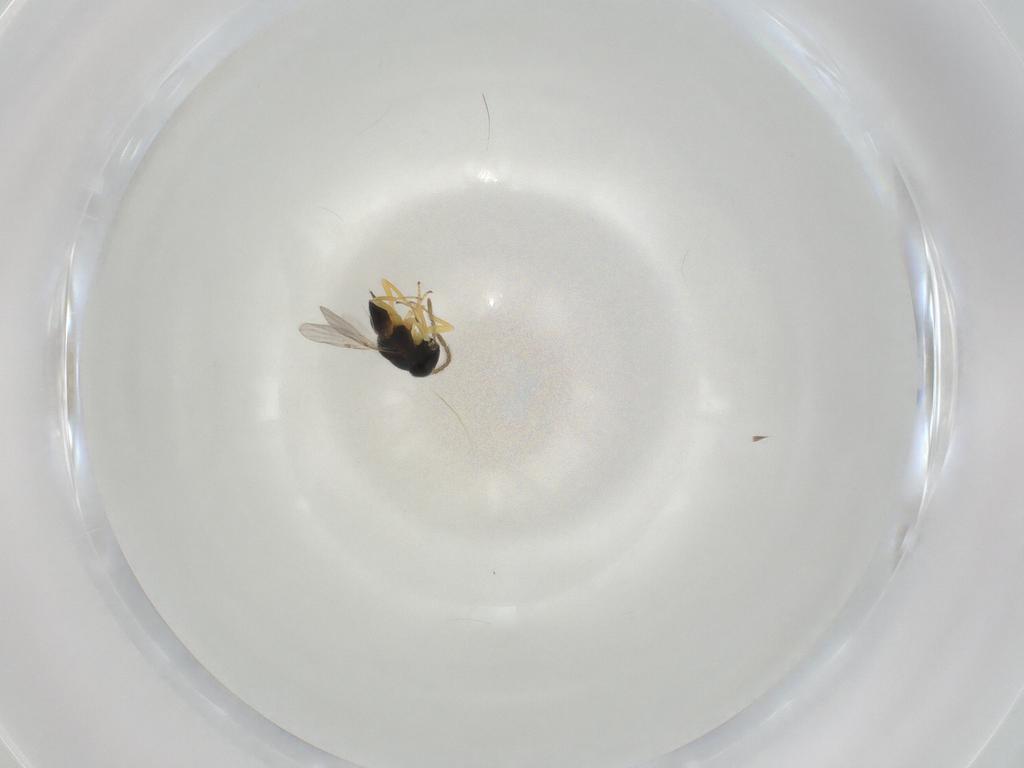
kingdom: Animalia
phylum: Arthropoda
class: Insecta
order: Hymenoptera
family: Encyrtidae
